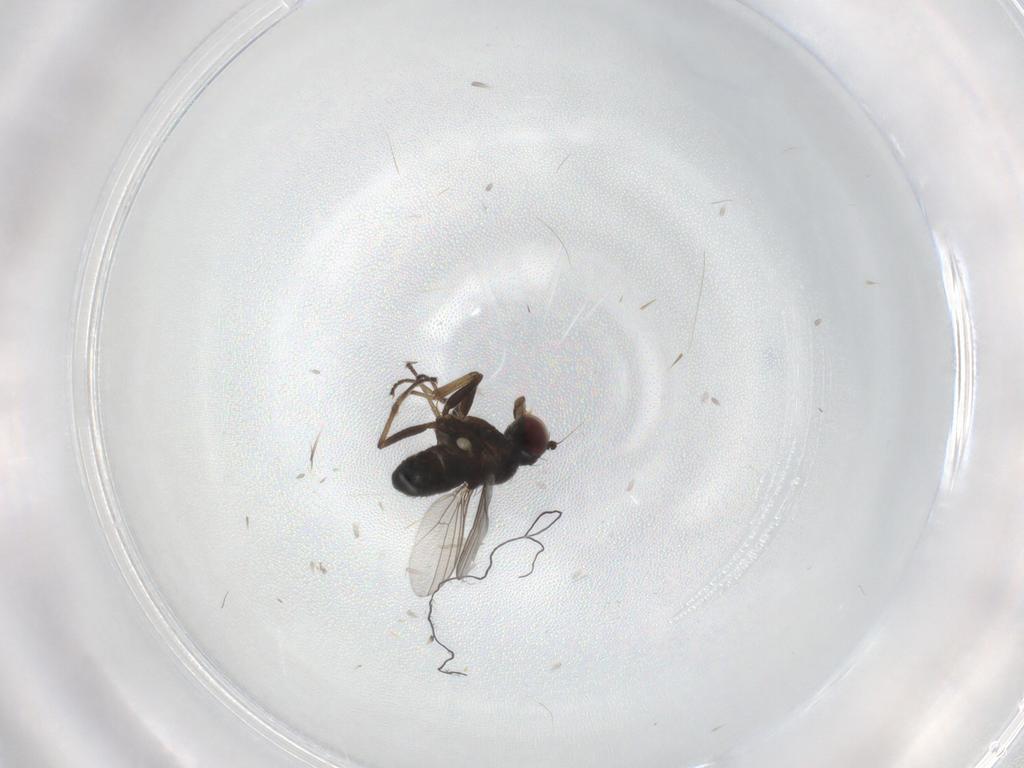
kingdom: Animalia
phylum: Arthropoda
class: Insecta
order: Diptera
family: Dolichopodidae
